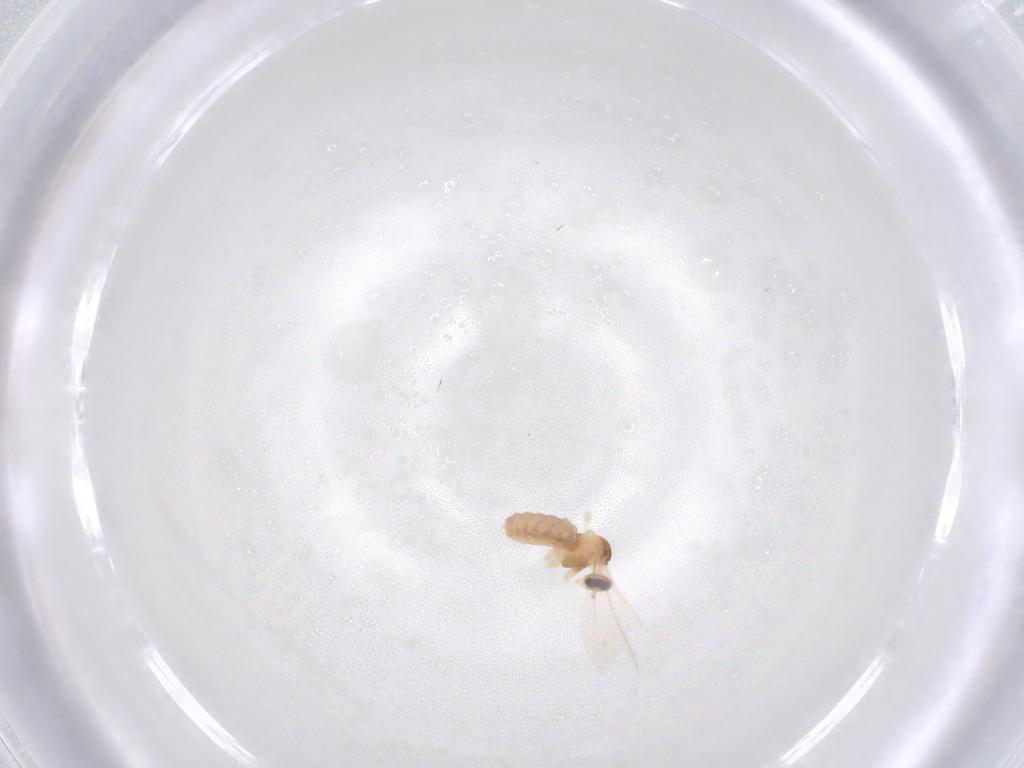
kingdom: Animalia
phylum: Arthropoda
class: Insecta
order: Diptera
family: Cecidomyiidae
